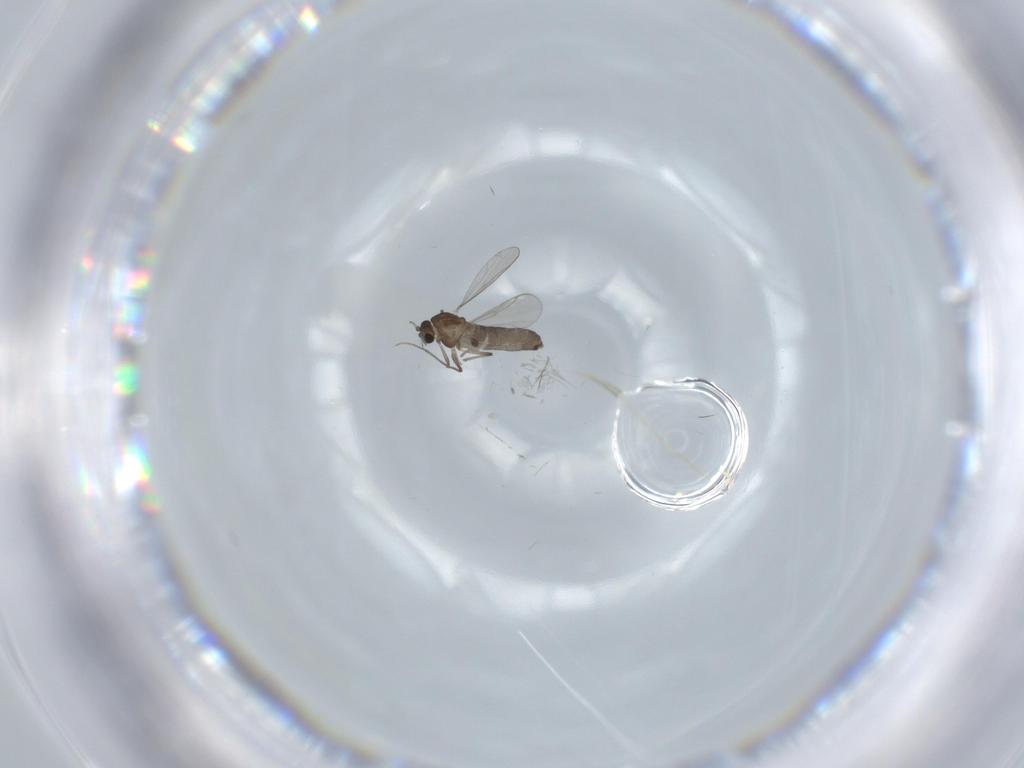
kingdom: Animalia
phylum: Arthropoda
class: Insecta
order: Diptera
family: Chironomidae
